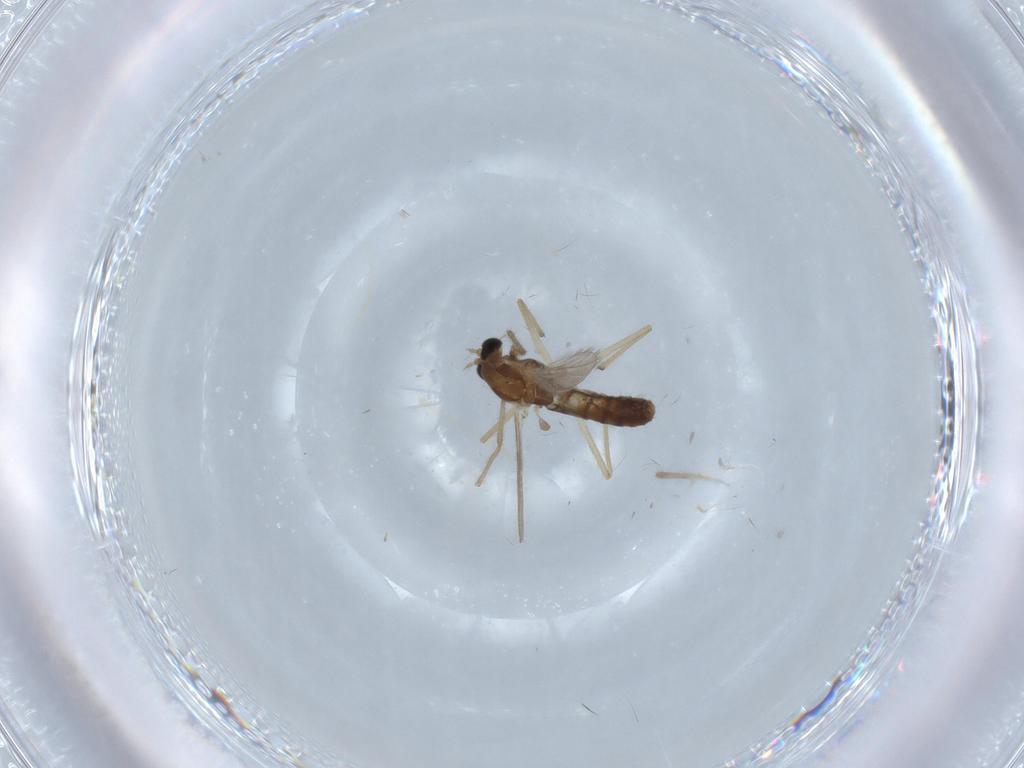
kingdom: Animalia
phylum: Arthropoda
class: Insecta
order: Diptera
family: Chironomidae
